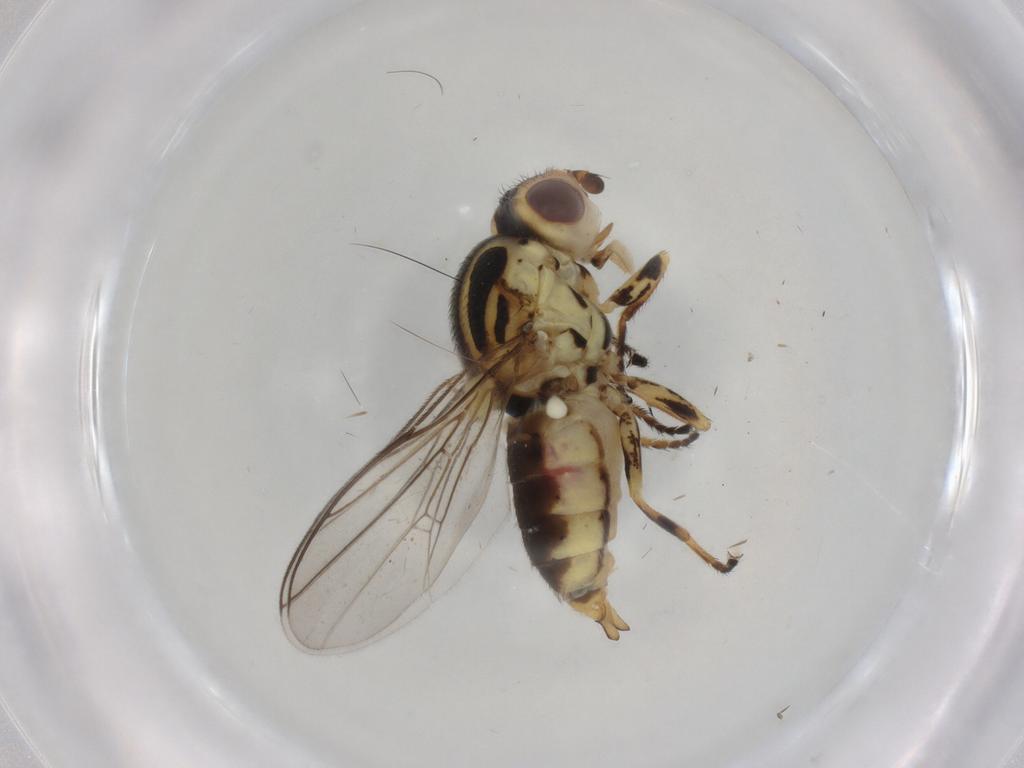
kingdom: Animalia
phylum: Arthropoda
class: Insecta
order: Diptera
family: Chloropidae
